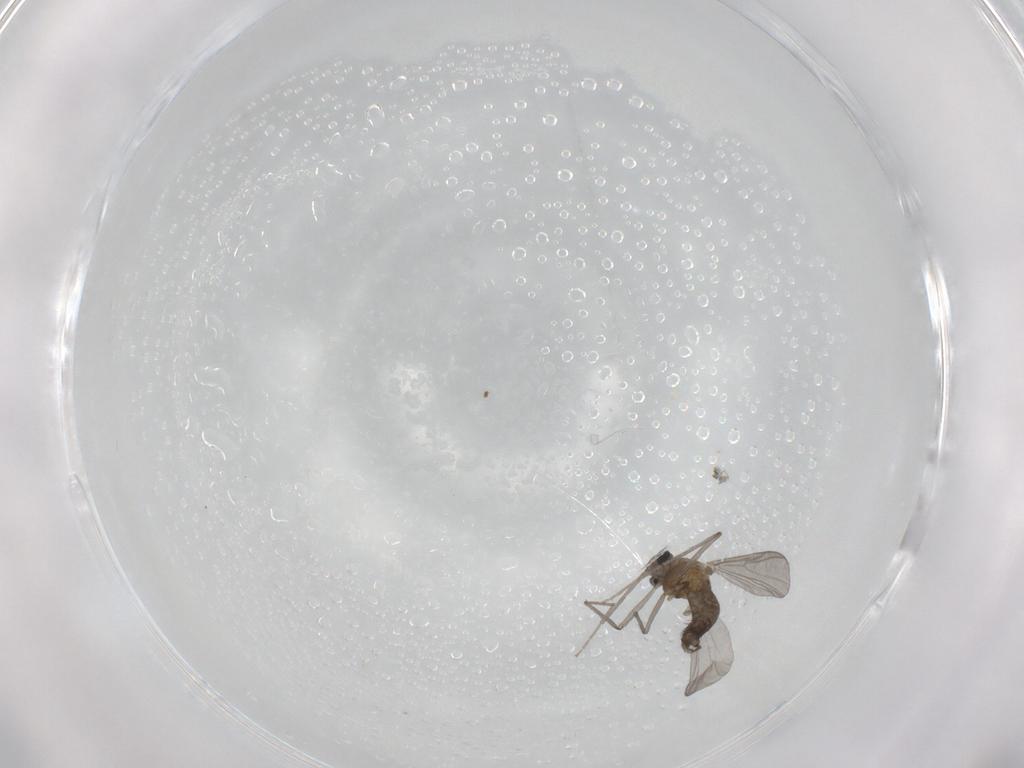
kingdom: Animalia
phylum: Arthropoda
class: Insecta
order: Diptera
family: Chironomidae
